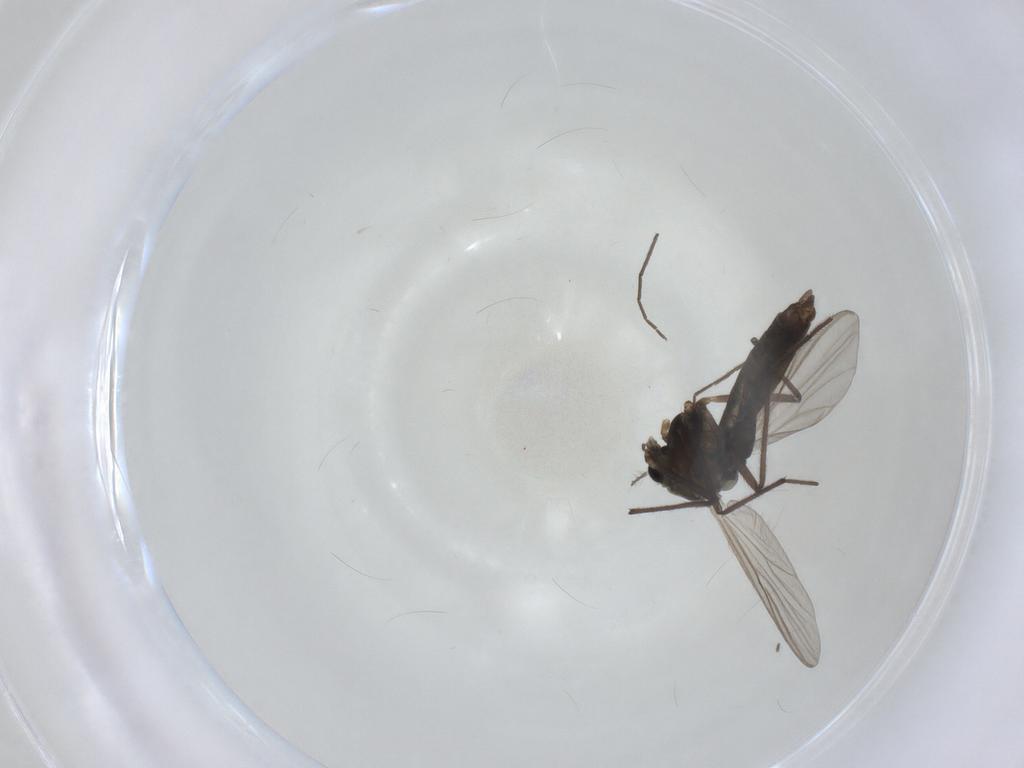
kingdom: Animalia
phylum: Arthropoda
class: Insecta
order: Diptera
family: Chironomidae
